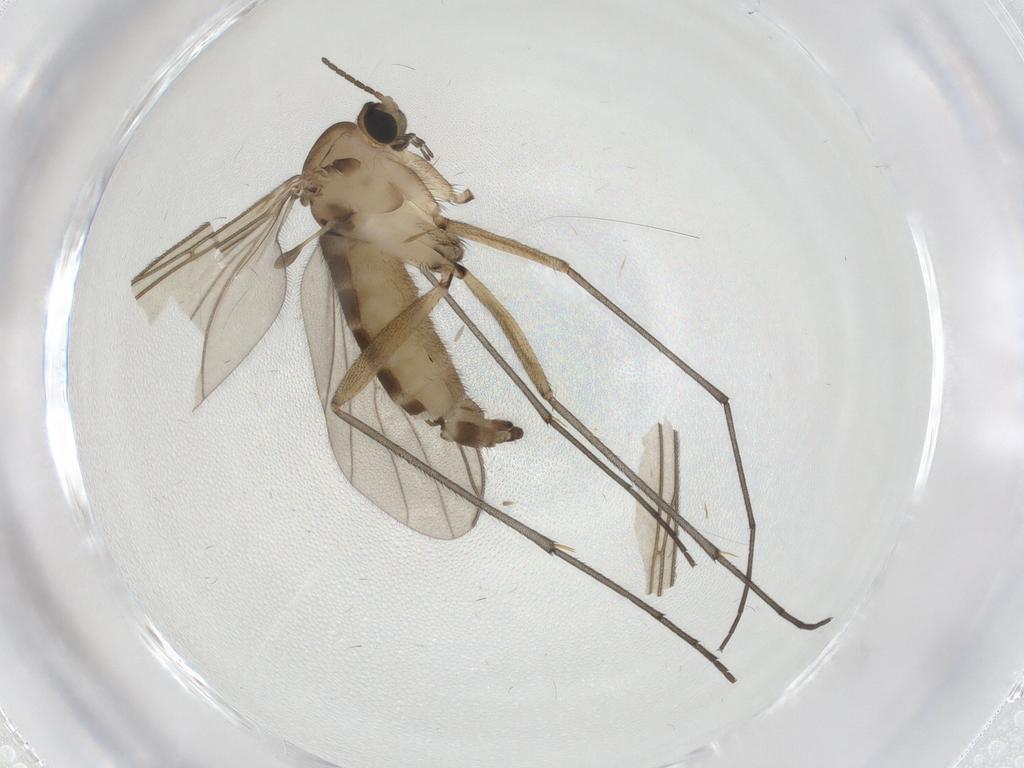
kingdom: Animalia
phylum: Arthropoda
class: Insecta
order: Diptera
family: Sciaridae
